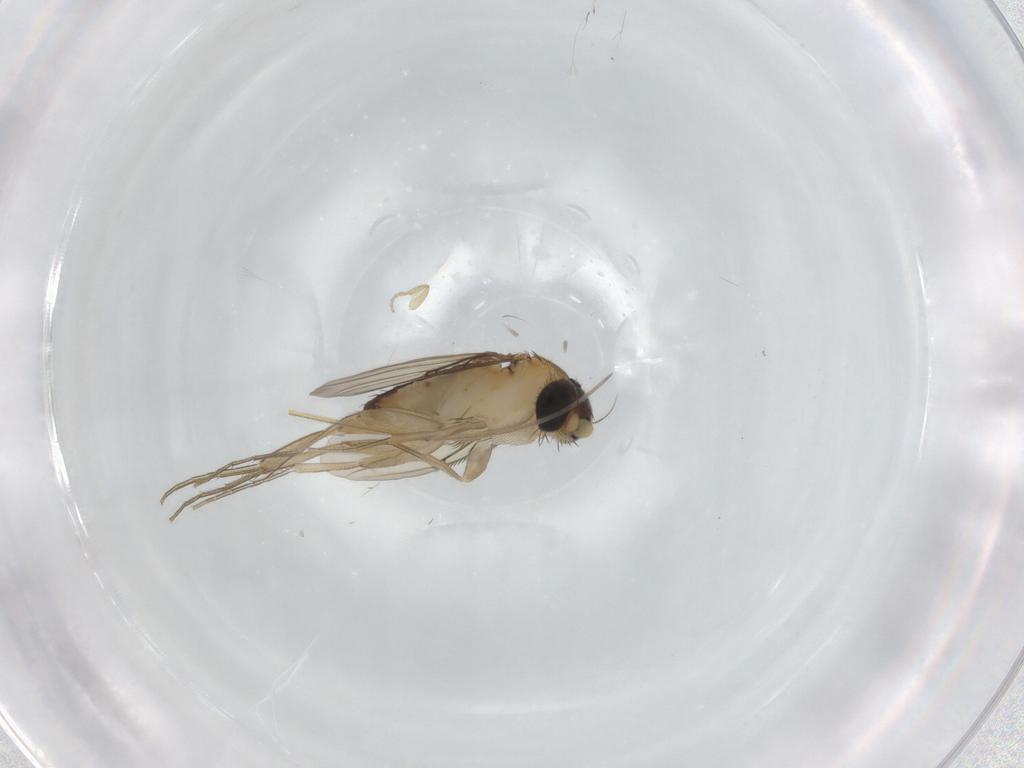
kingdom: Animalia
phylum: Arthropoda
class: Insecta
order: Diptera
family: Phoridae
